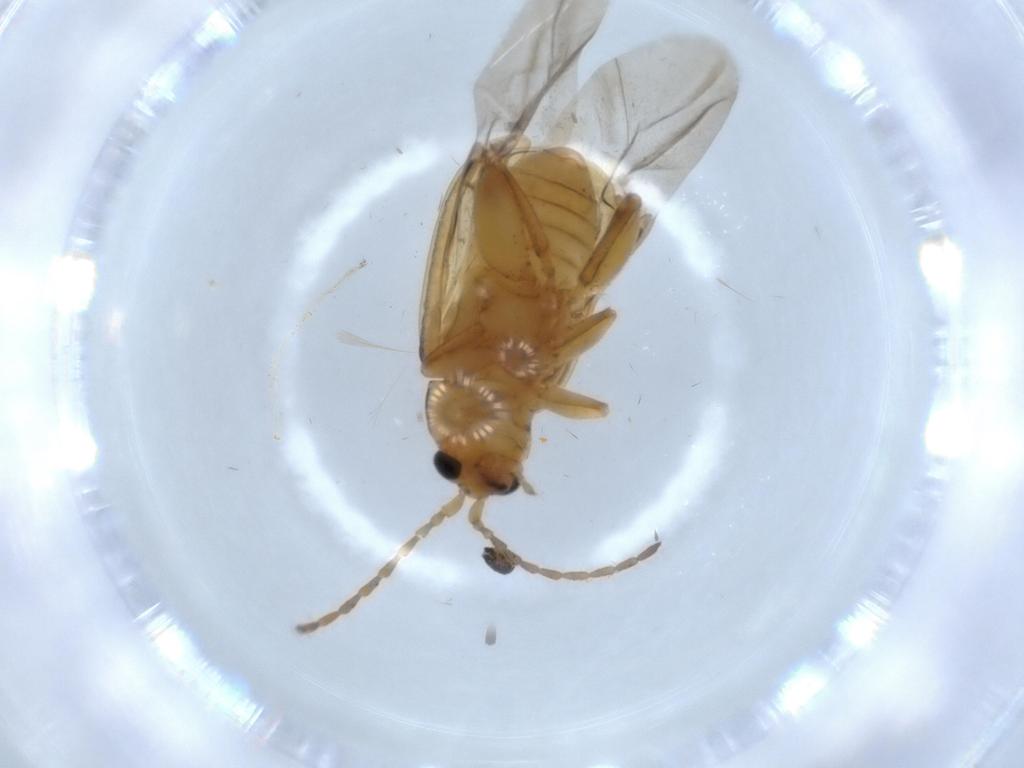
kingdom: Animalia
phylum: Arthropoda
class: Insecta
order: Coleoptera
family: Chrysomelidae
